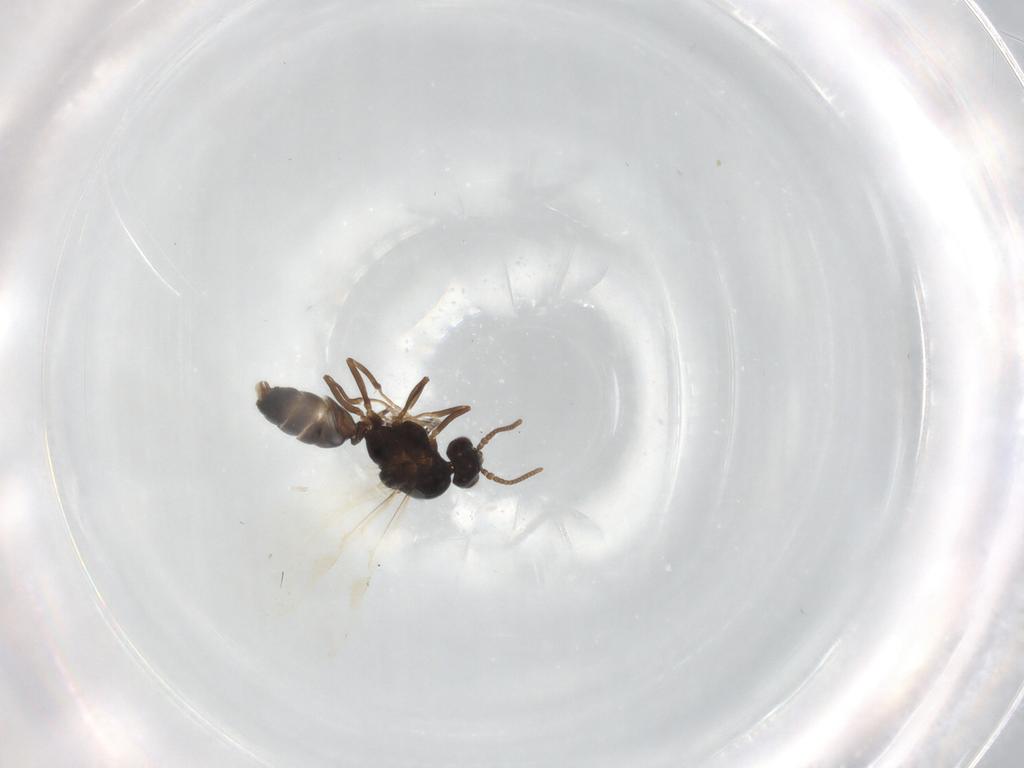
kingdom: Animalia
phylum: Arthropoda
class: Insecta
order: Hymenoptera
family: Formicidae
